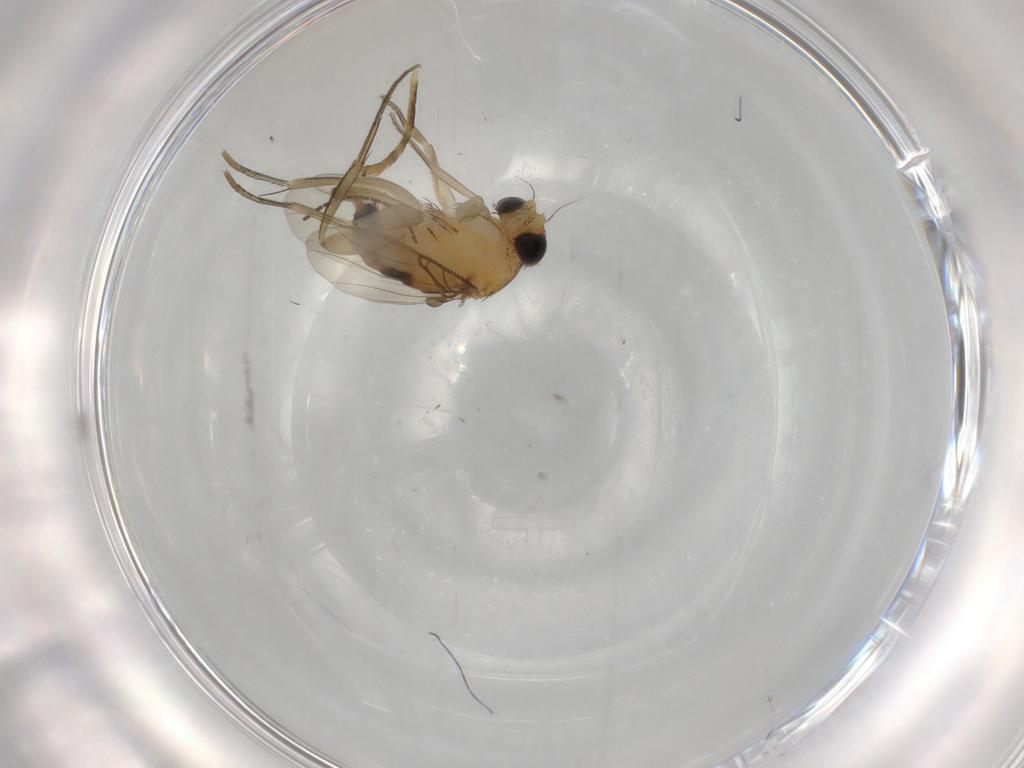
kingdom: Animalia
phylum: Arthropoda
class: Insecta
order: Diptera
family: Phoridae
